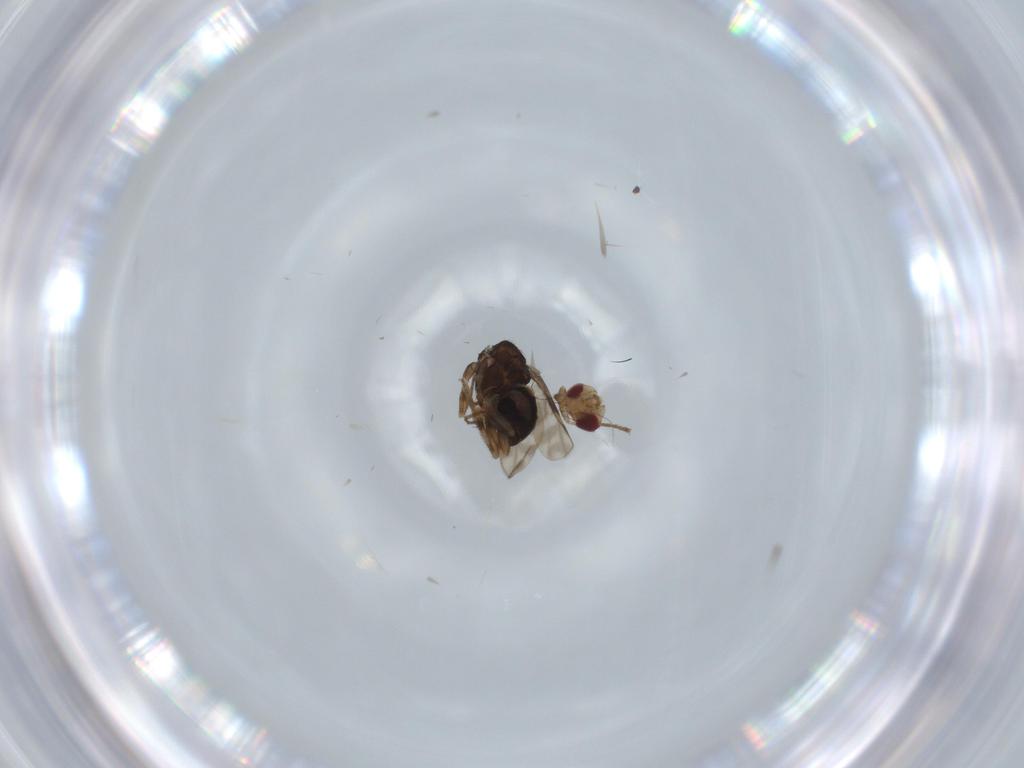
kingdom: Animalia
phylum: Arthropoda
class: Insecta
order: Diptera
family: Sphaeroceridae
